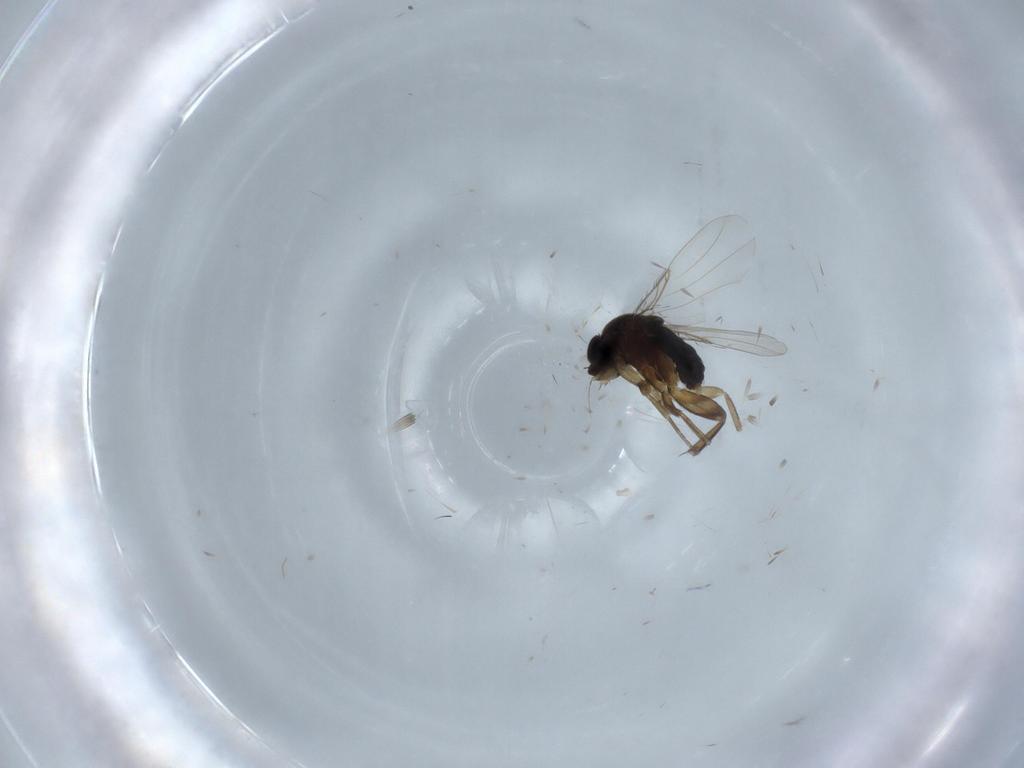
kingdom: Animalia
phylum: Arthropoda
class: Insecta
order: Diptera
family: Phoridae
